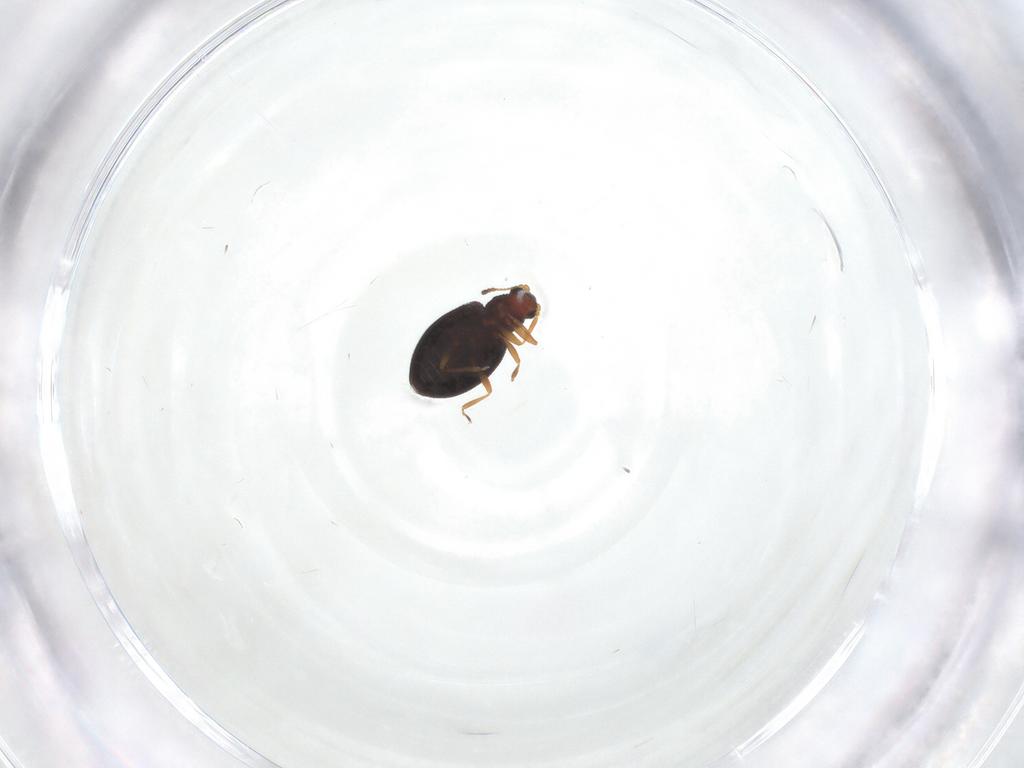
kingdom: Animalia
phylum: Arthropoda
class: Insecta
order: Coleoptera
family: Latridiidae
